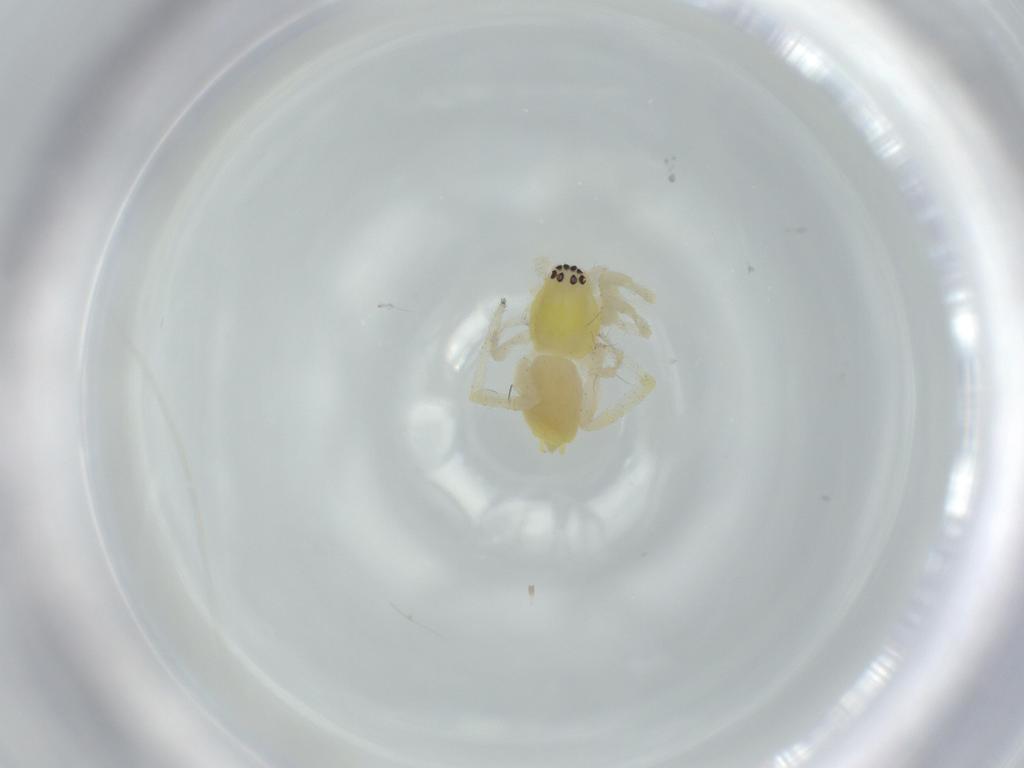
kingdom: Animalia
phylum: Arthropoda
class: Arachnida
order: Araneae
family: Anyphaenidae
